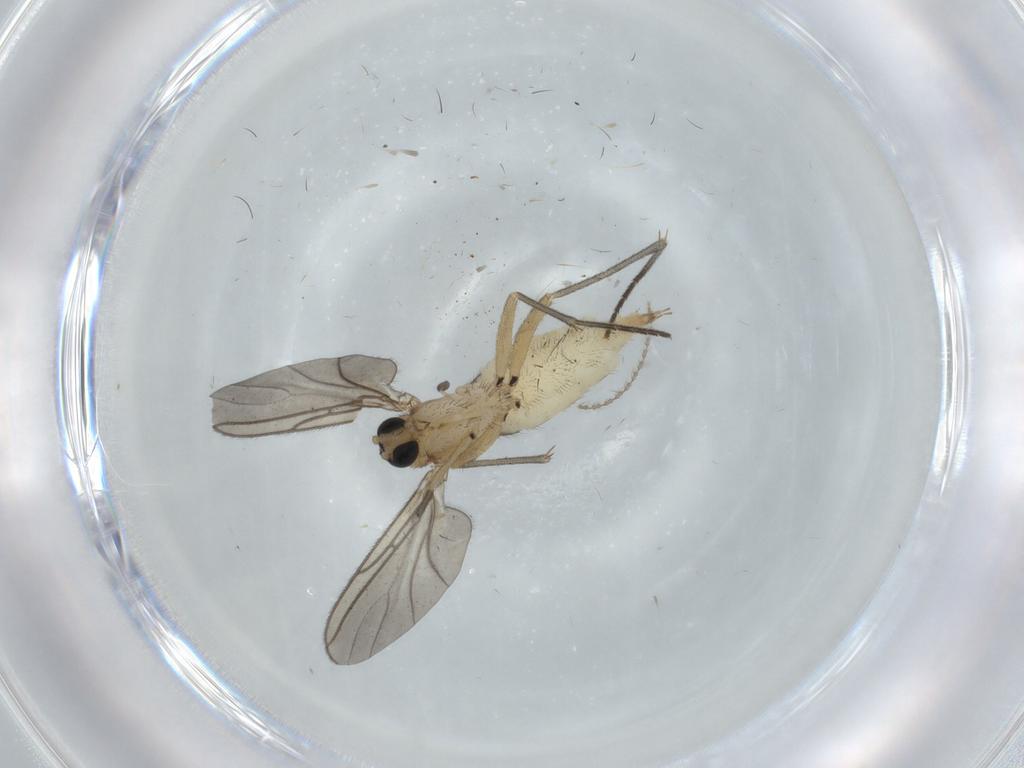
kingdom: Animalia
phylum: Arthropoda
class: Insecta
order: Diptera
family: Sciaridae
